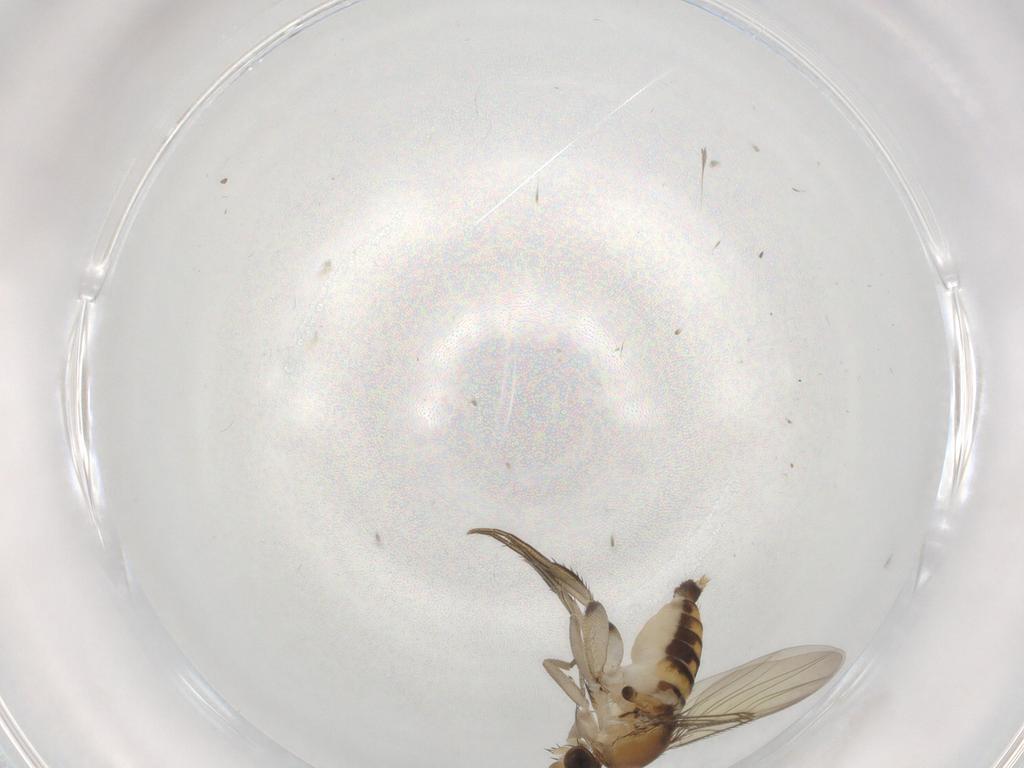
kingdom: Animalia
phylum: Arthropoda
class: Insecta
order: Diptera
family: Phoridae
